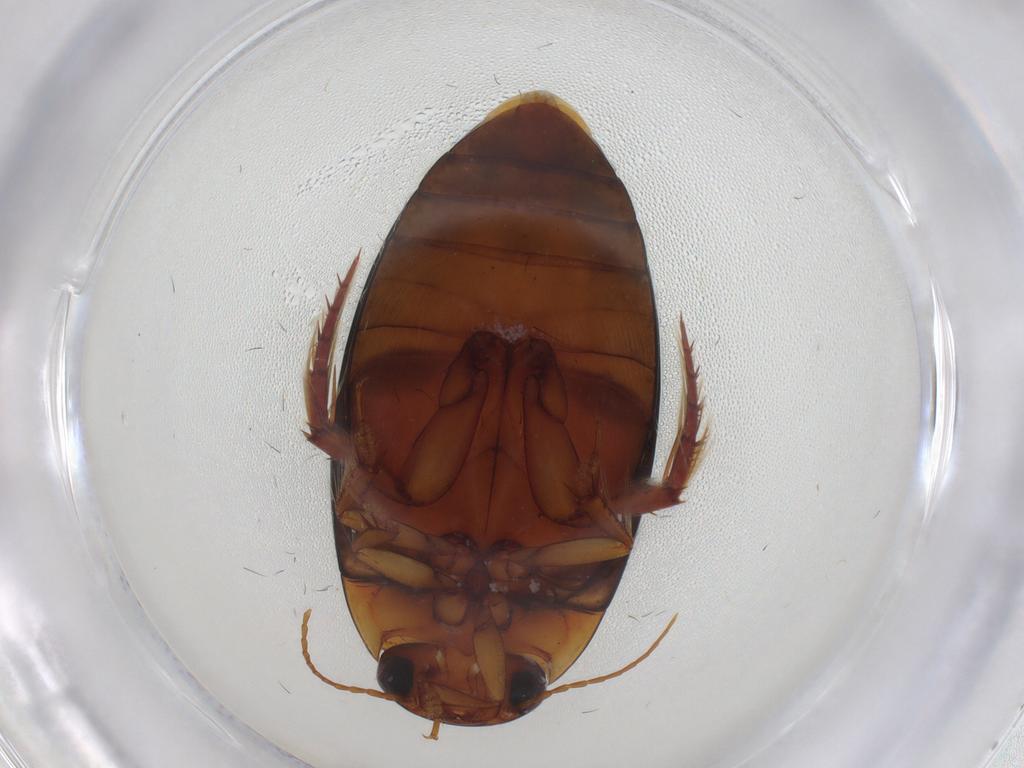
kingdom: Animalia
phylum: Arthropoda
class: Insecta
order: Coleoptera
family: Dytiscidae
